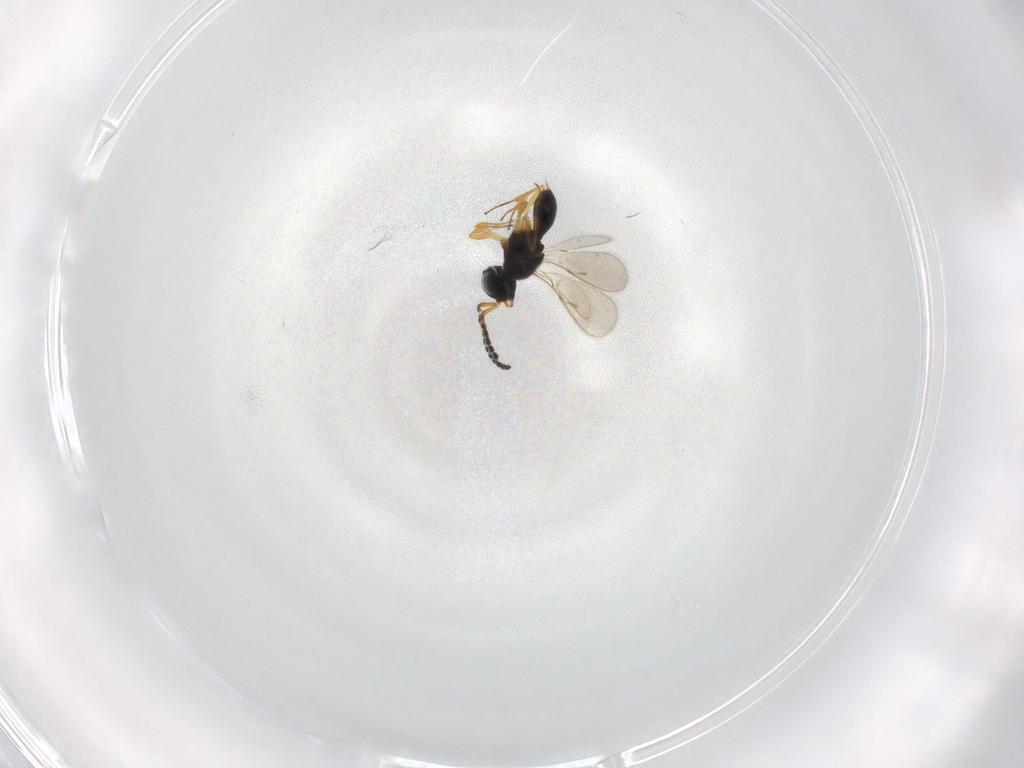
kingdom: Animalia
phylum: Arthropoda
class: Insecta
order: Hymenoptera
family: Scelionidae
